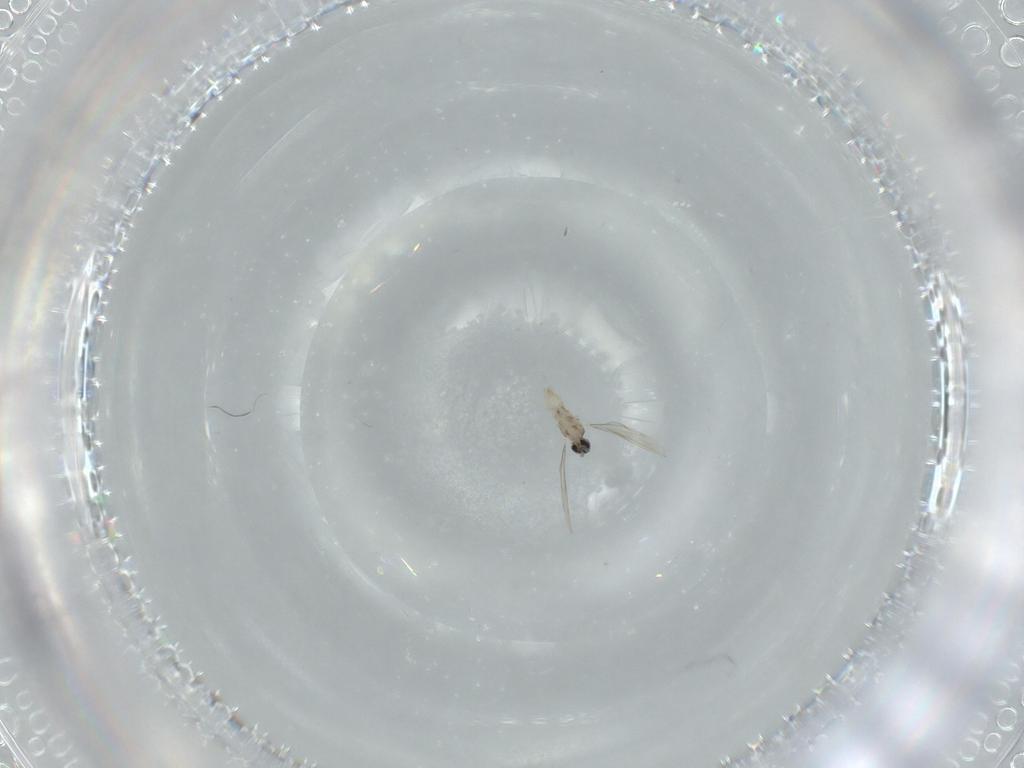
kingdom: Animalia
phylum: Arthropoda
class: Insecta
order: Diptera
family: Cecidomyiidae
